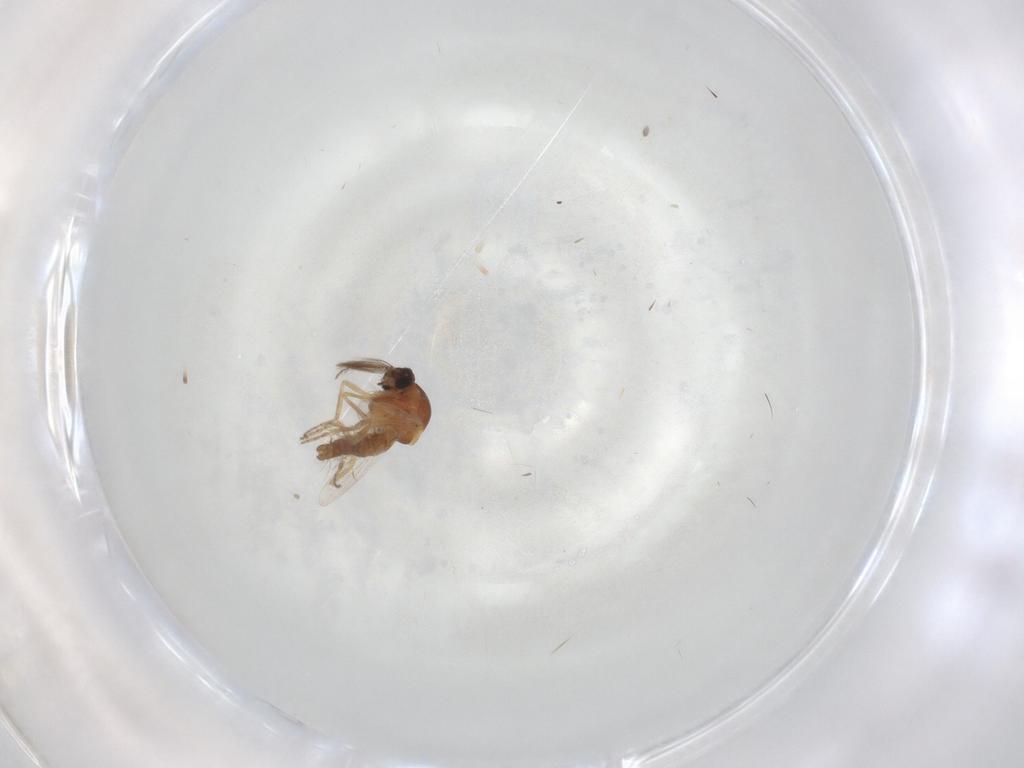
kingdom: Animalia
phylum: Arthropoda
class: Insecta
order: Diptera
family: Ceratopogonidae
